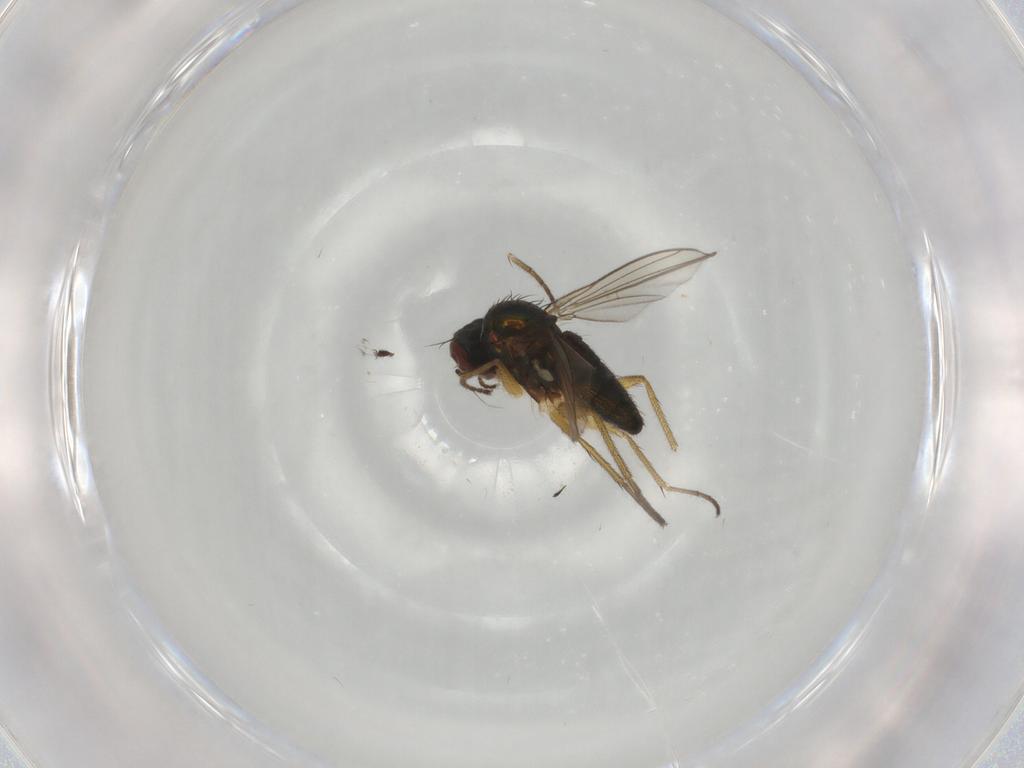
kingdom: Animalia
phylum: Arthropoda
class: Insecta
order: Diptera
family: Dolichopodidae
